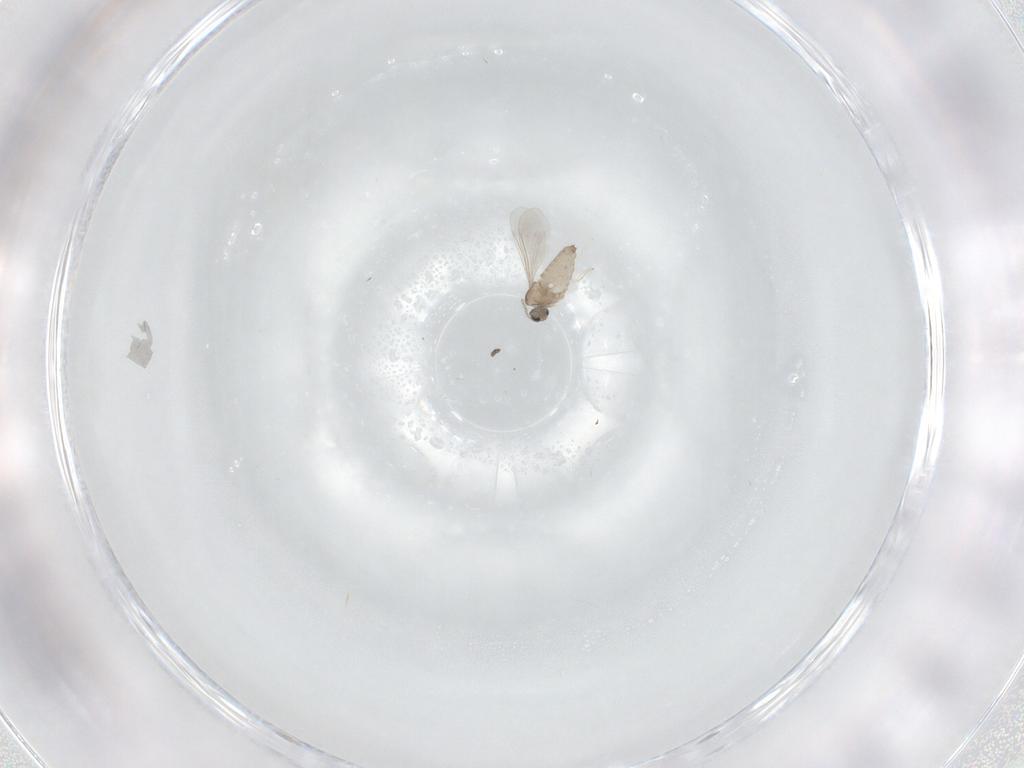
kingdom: Animalia
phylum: Arthropoda
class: Insecta
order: Diptera
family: Cecidomyiidae
